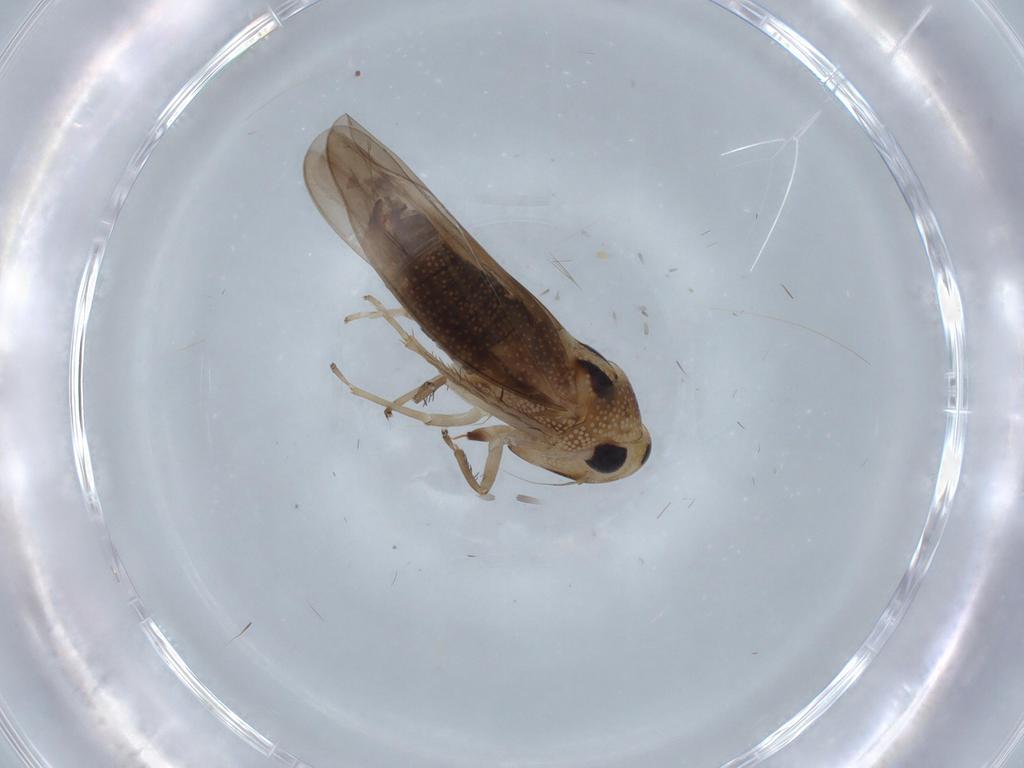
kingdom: Animalia
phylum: Arthropoda
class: Insecta
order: Hemiptera
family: Cicadellidae
